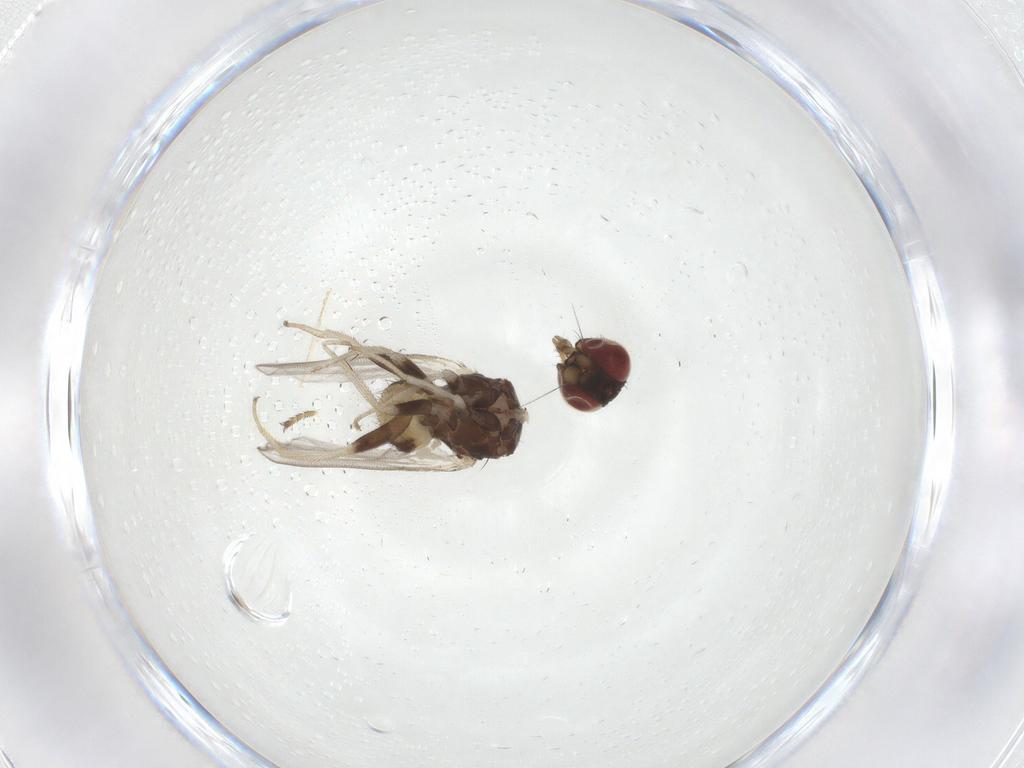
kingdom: Animalia
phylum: Arthropoda
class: Insecta
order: Diptera
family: Milichiidae
